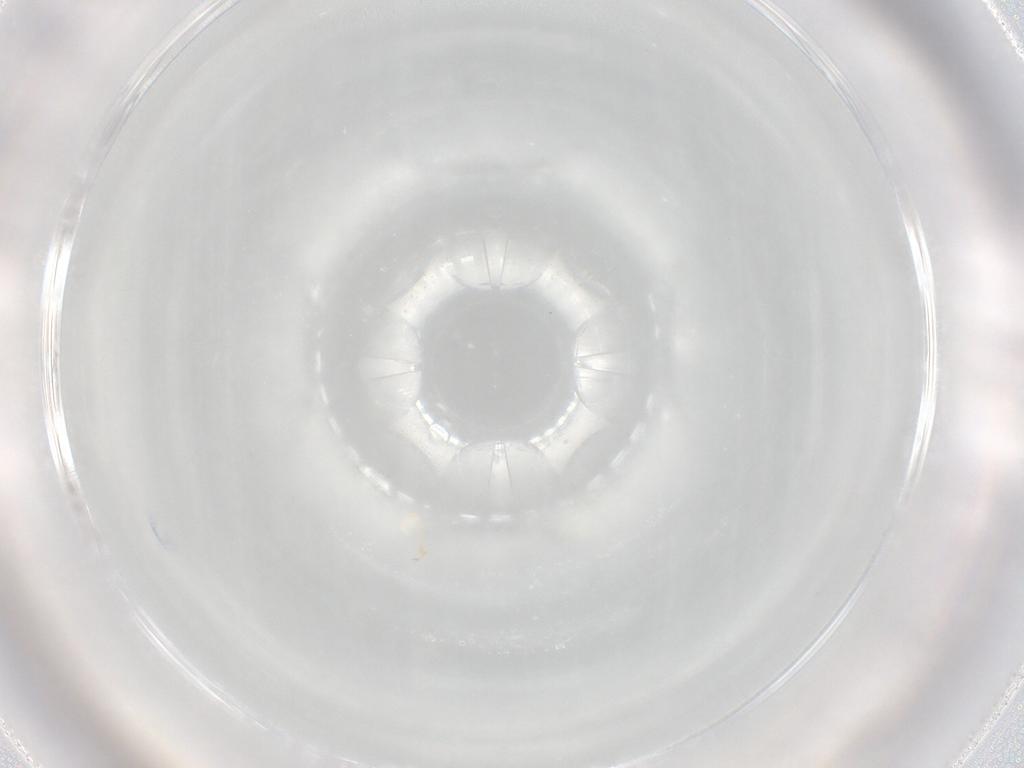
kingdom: Animalia
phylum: Arthropoda
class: Arachnida
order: Sarcoptiformes
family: Brachychthoniidae
